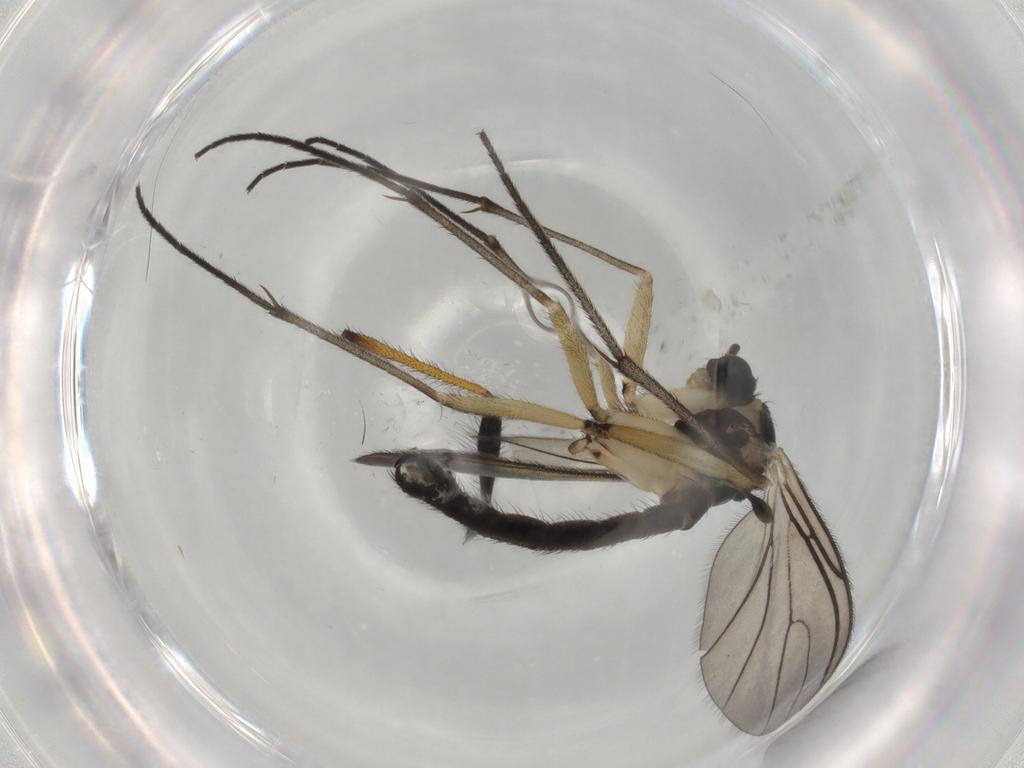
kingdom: Animalia
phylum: Arthropoda
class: Insecta
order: Diptera
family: Sciaridae
